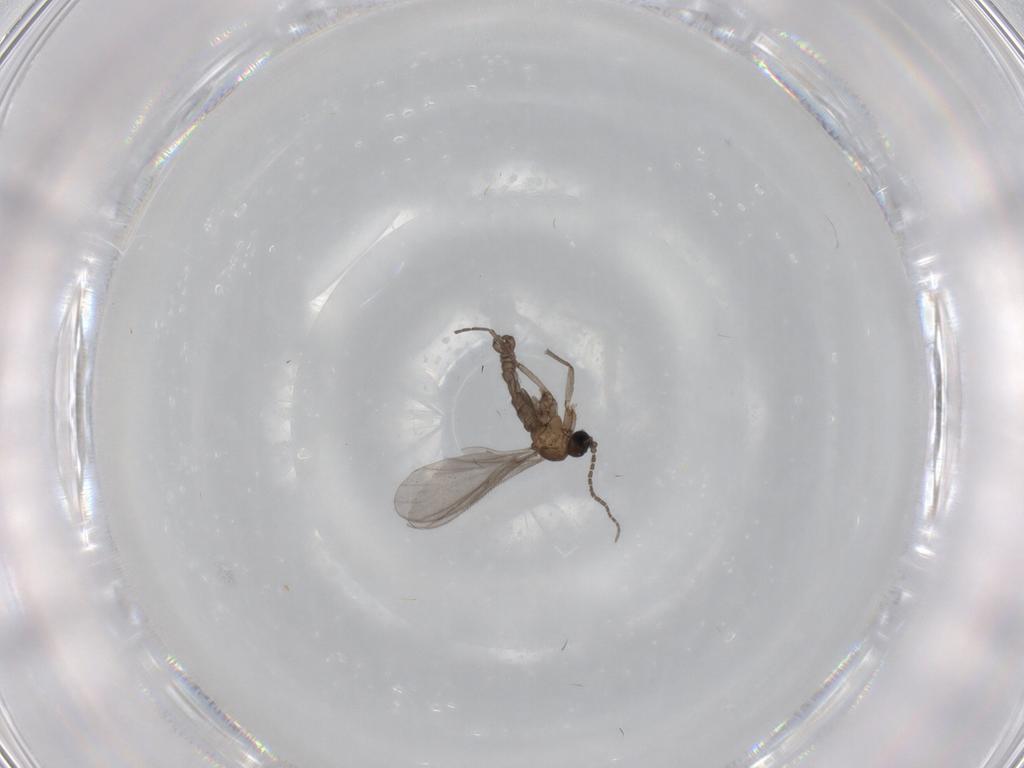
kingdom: Animalia
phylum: Arthropoda
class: Insecta
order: Diptera
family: Sciaridae
